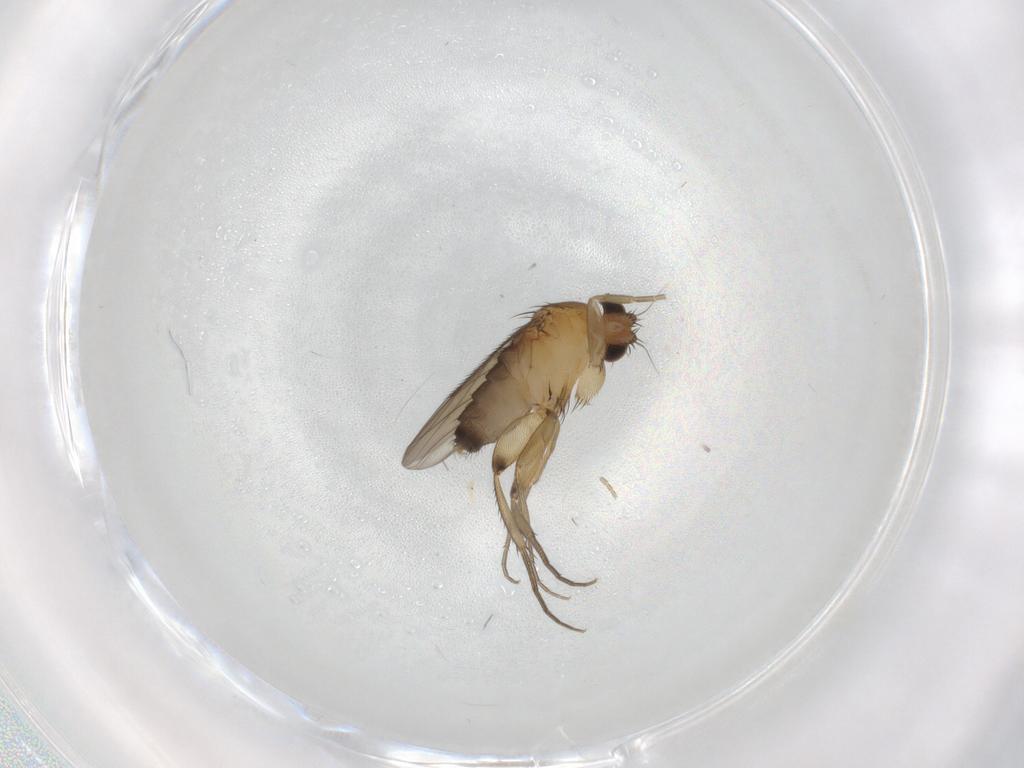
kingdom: Animalia
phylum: Arthropoda
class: Insecta
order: Diptera
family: Phoridae
